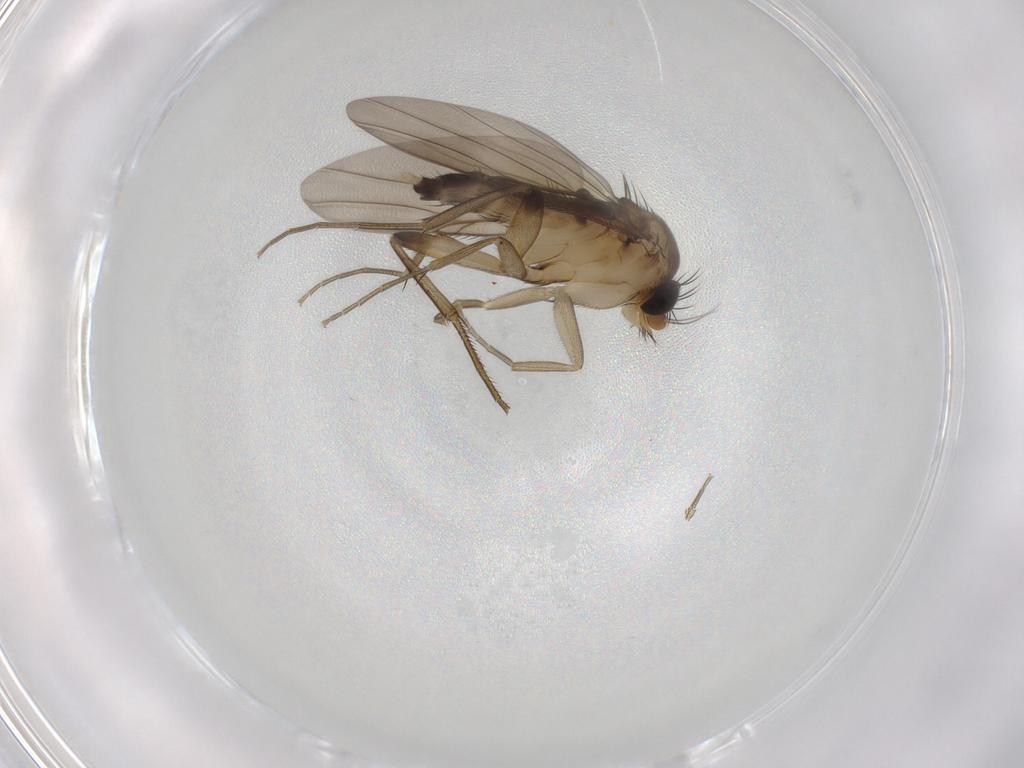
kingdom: Animalia
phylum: Arthropoda
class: Insecta
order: Diptera
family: Phoridae
